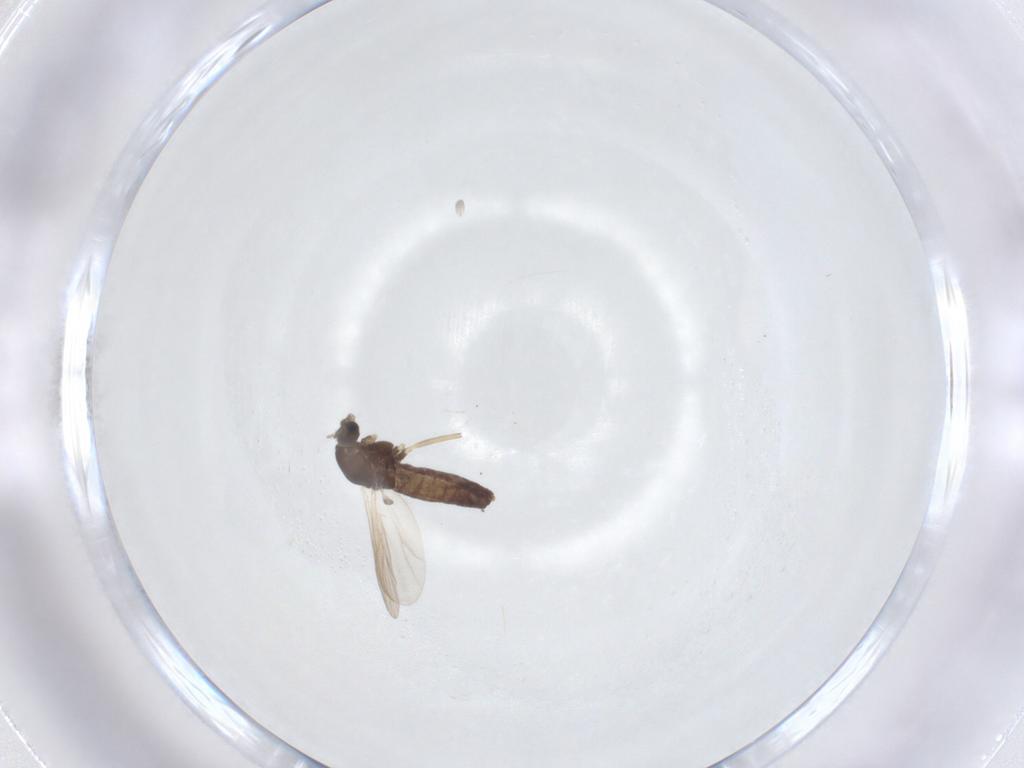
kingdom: Animalia
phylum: Arthropoda
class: Insecta
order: Diptera
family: Chironomidae
